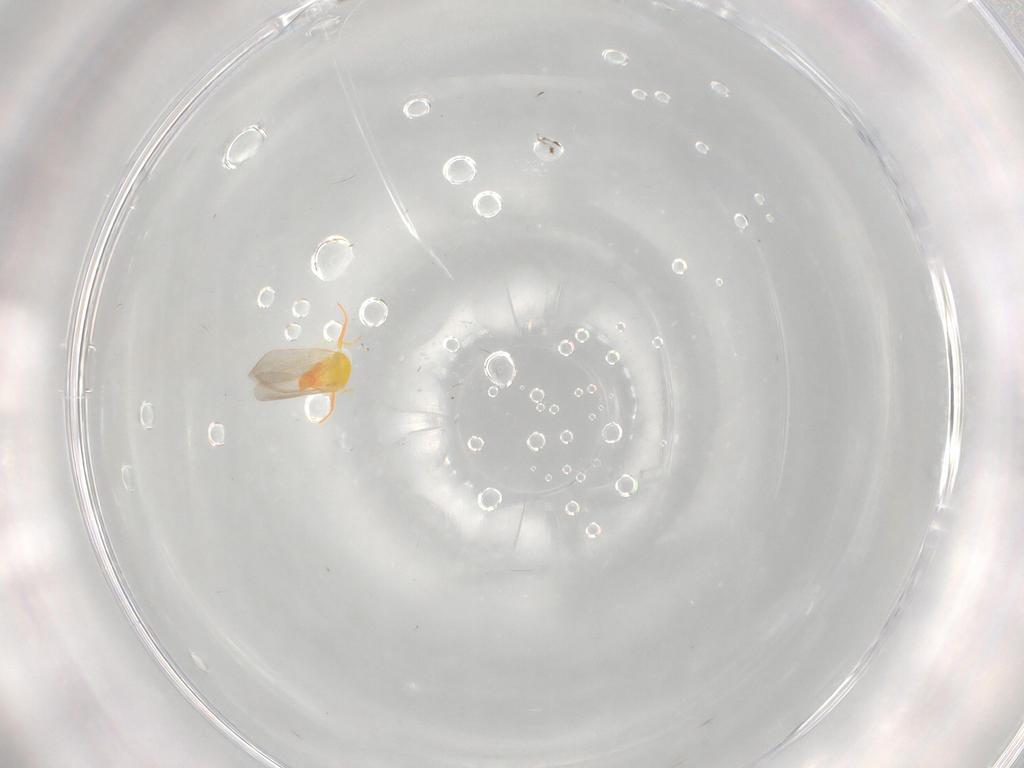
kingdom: Animalia
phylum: Arthropoda
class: Insecta
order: Hemiptera
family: Aleyrodidae
